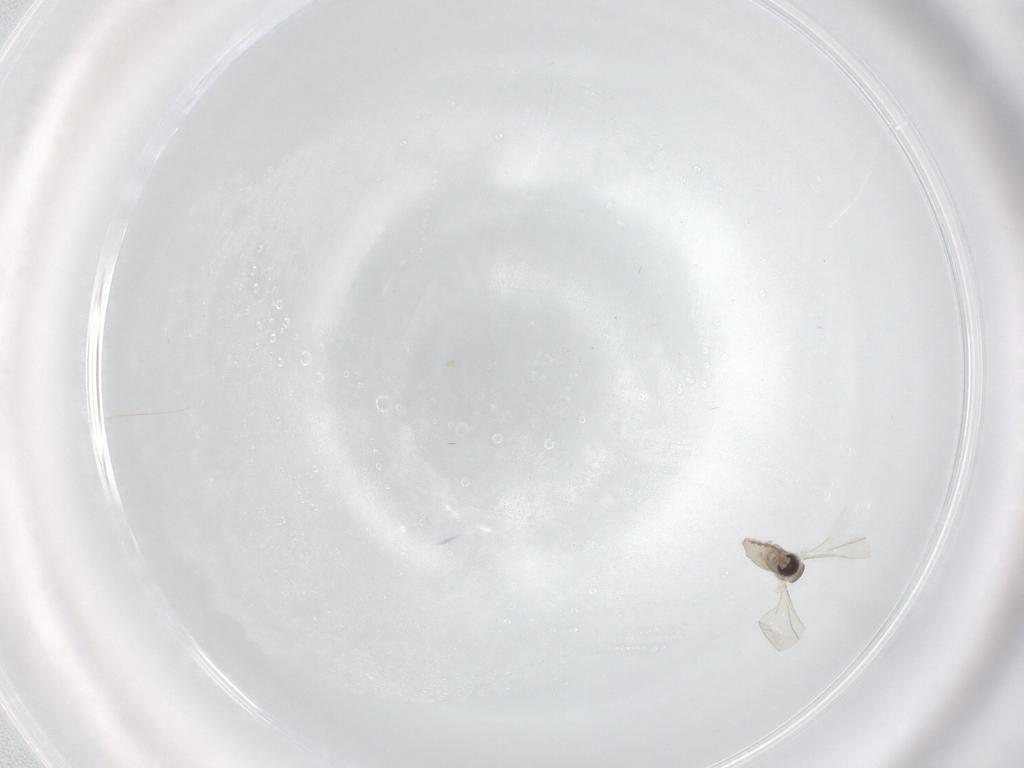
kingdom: Animalia
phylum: Arthropoda
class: Insecta
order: Diptera
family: Cecidomyiidae
